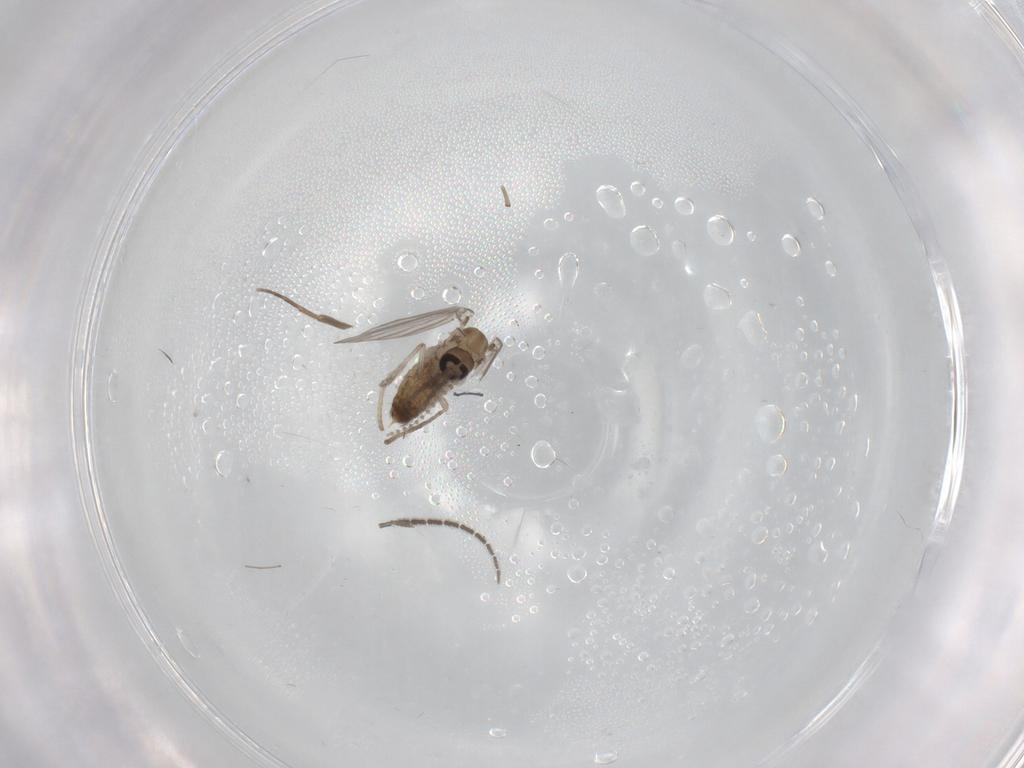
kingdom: Animalia
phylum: Arthropoda
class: Insecta
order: Diptera
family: Psychodidae
